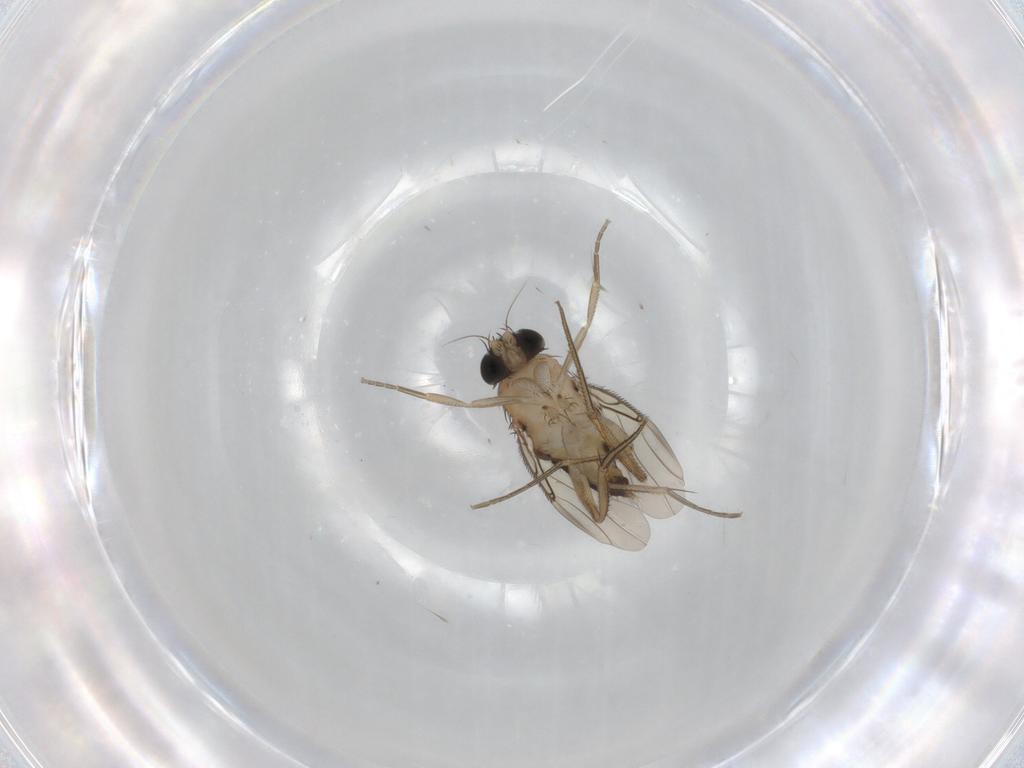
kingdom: Animalia
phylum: Arthropoda
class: Insecta
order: Diptera
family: Phoridae
